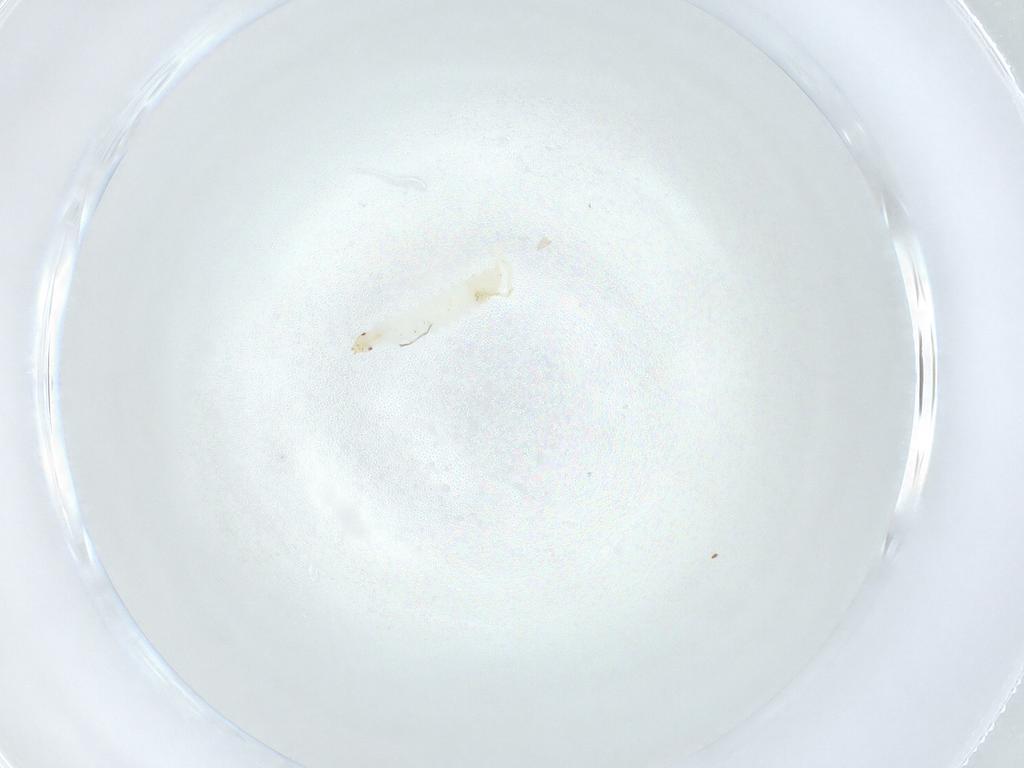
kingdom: Animalia
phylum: Arthropoda
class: Insecta
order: Diptera
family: Stratiomyidae
